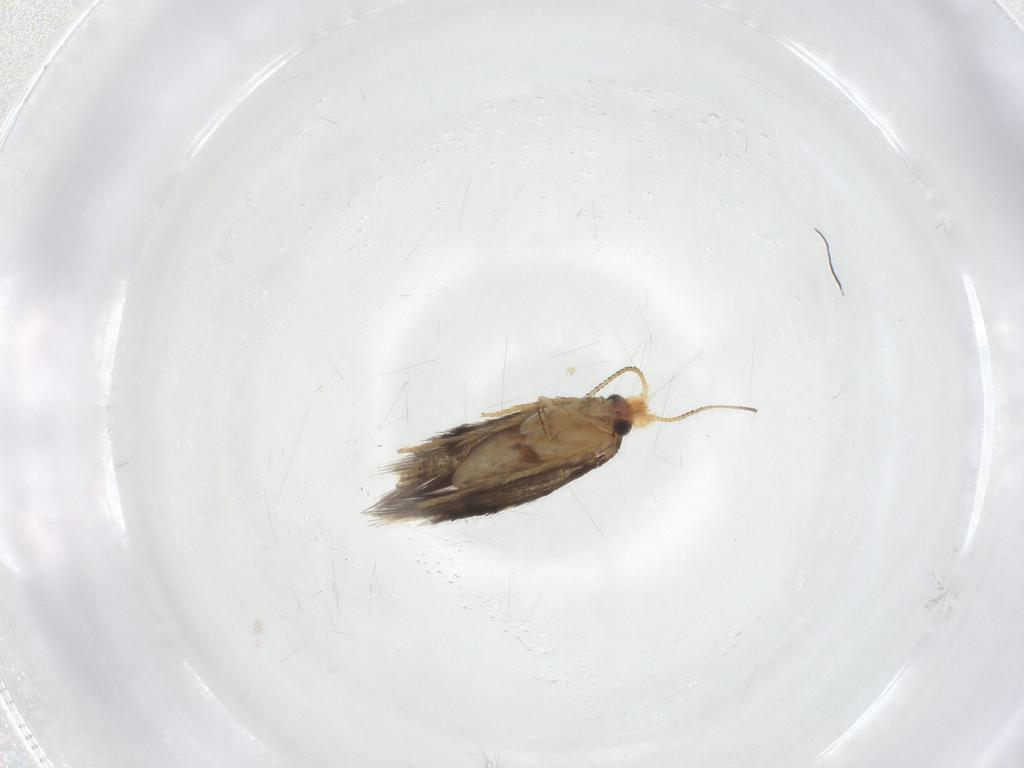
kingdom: Animalia
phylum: Arthropoda
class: Insecta
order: Lepidoptera
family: Nepticulidae
